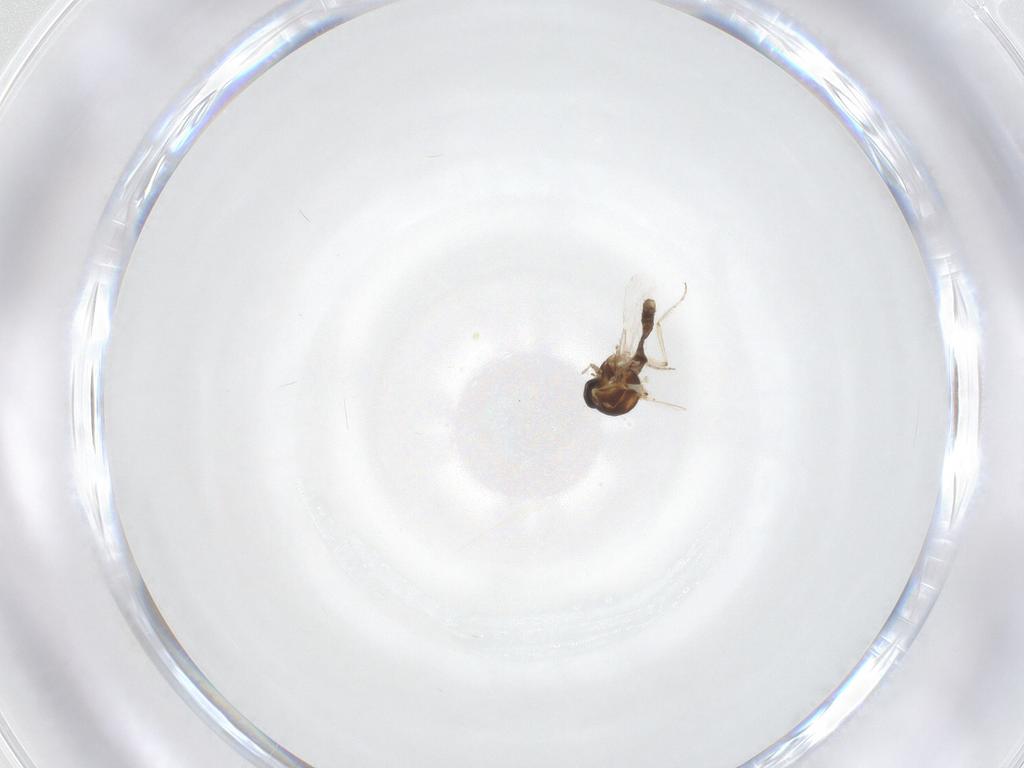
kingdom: Animalia
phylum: Arthropoda
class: Insecta
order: Diptera
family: Ceratopogonidae
